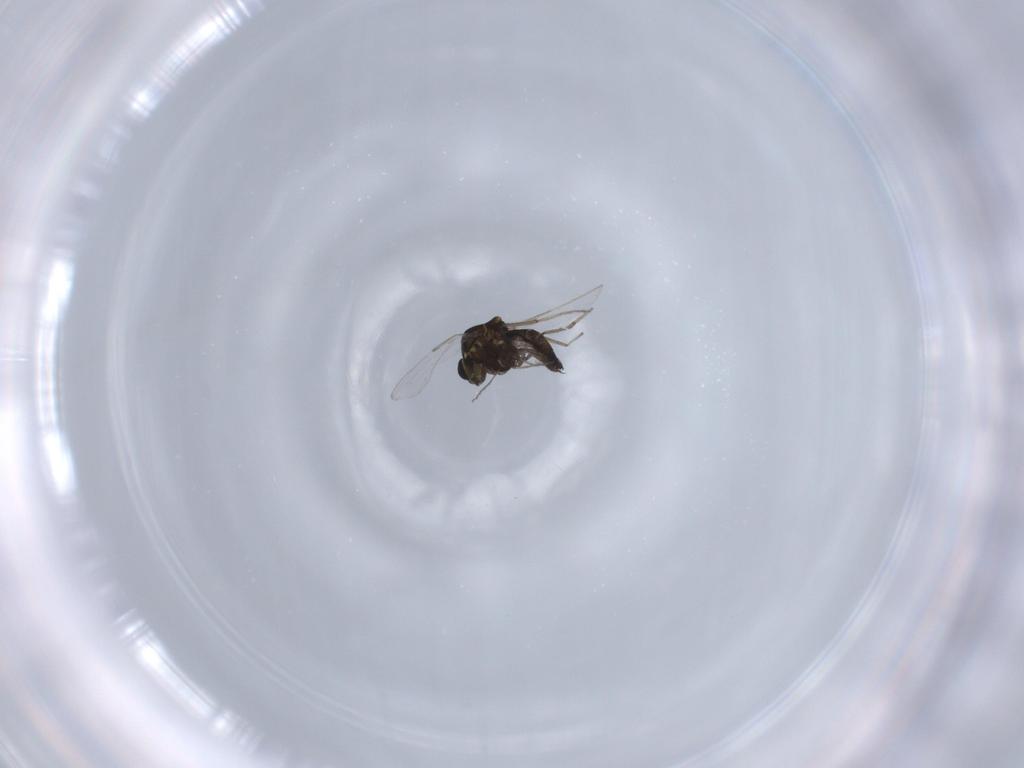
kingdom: Animalia
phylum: Arthropoda
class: Insecta
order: Diptera
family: Ceratopogonidae
